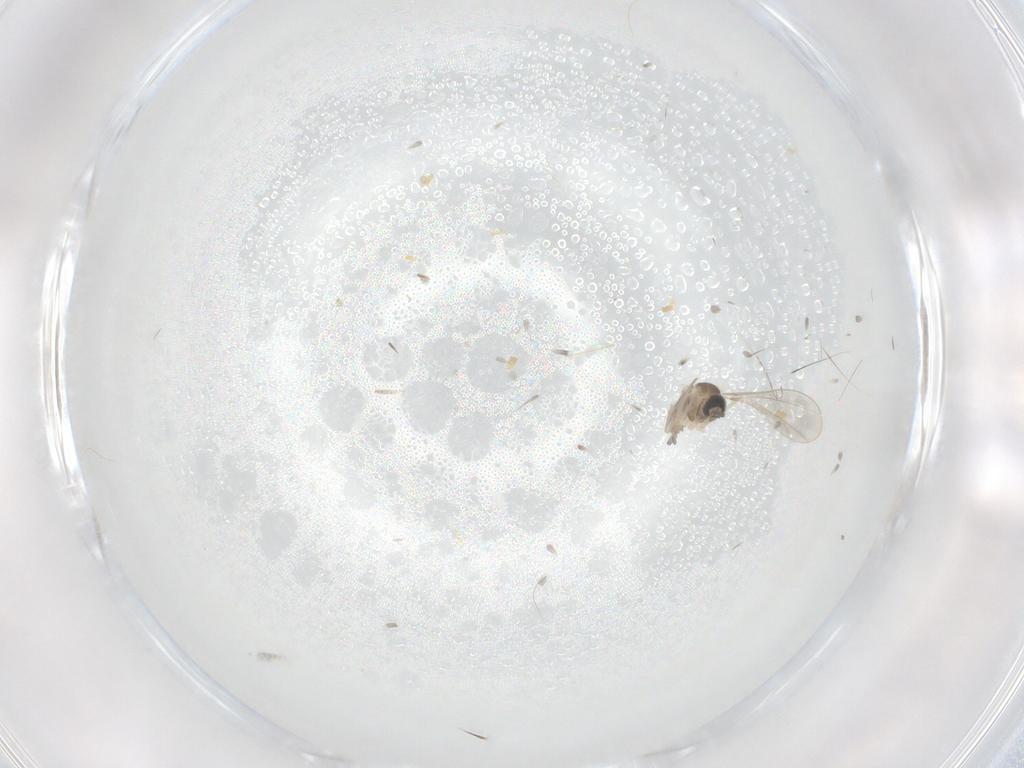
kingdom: Animalia
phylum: Arthropoda
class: Insecta
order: Diptera
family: Cecidomyiidae
